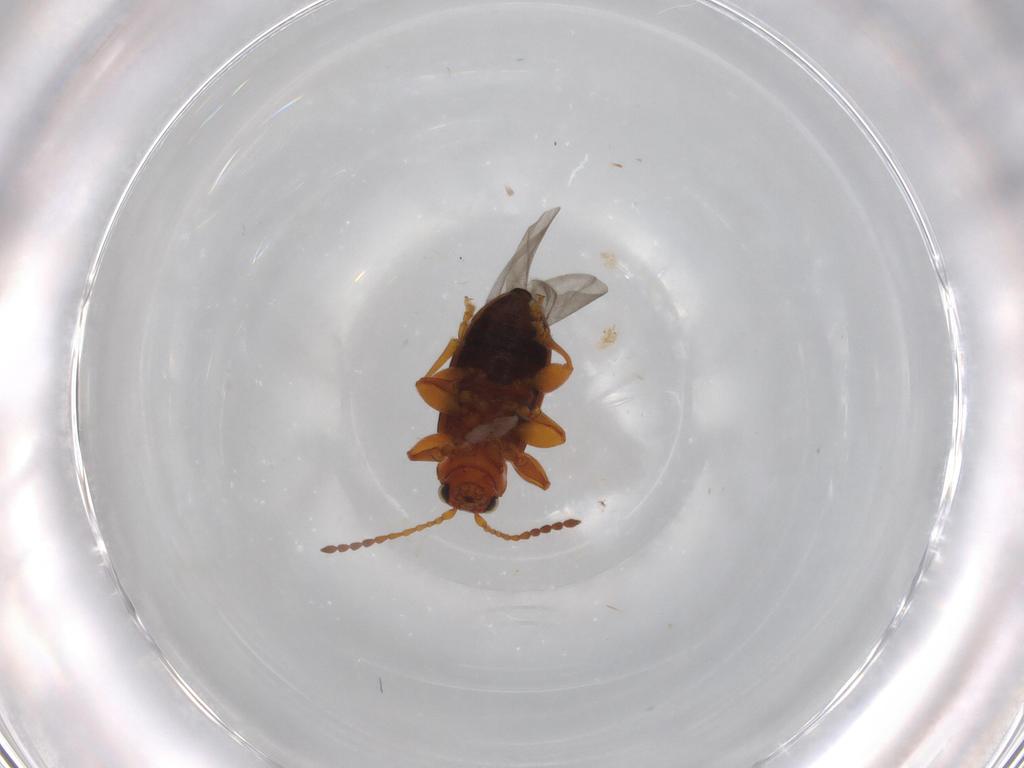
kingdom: Animalia
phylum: Arthropoda
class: Insecta
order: Coleoptera
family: Chrysomelidae
